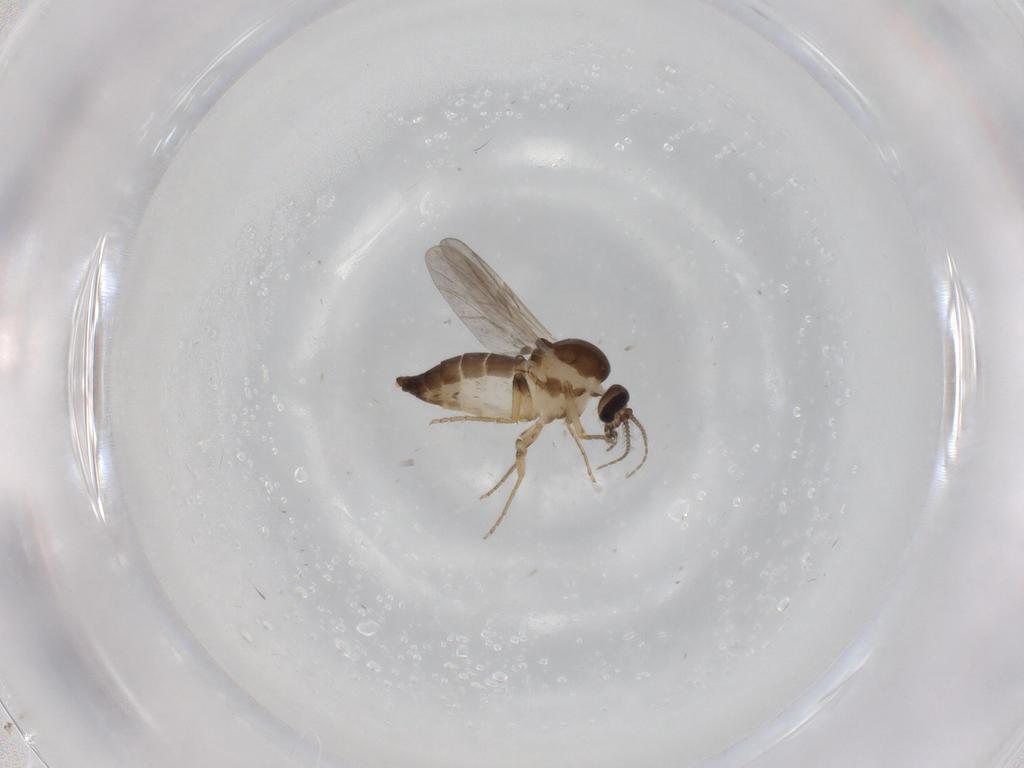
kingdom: Animalia
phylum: Arthropoda
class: Insecta
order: Diptera
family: Ceratopogonidae
